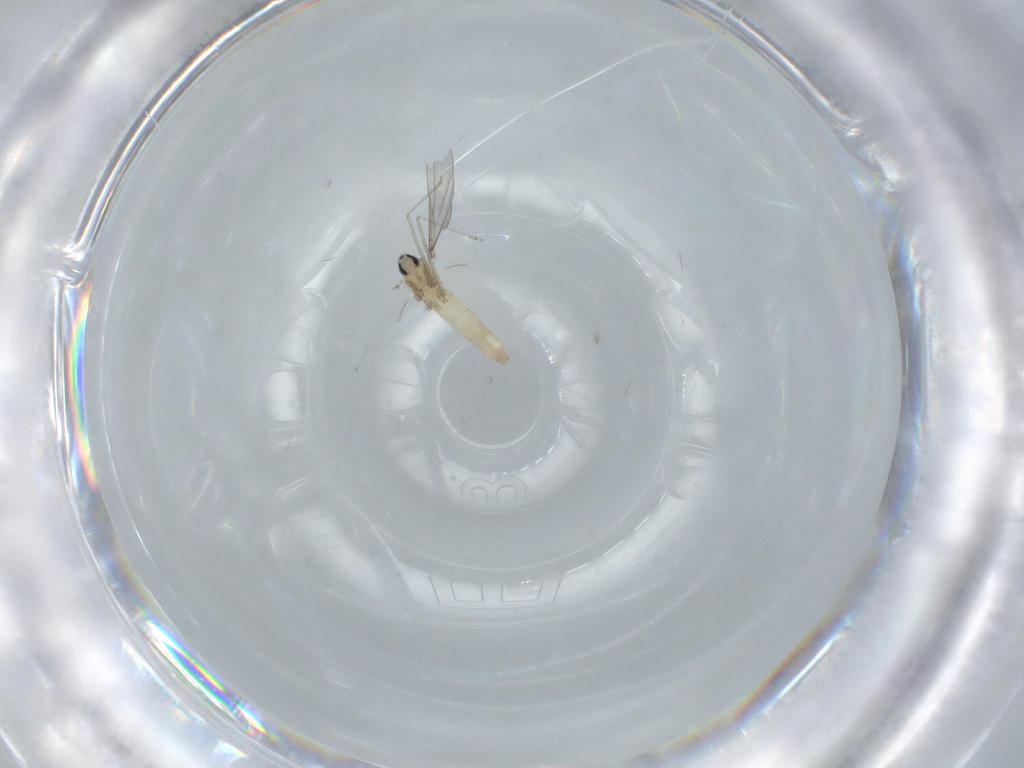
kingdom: Animalia
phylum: Arthropoda
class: Insecta
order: Diptera
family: Cecidomyiidae
